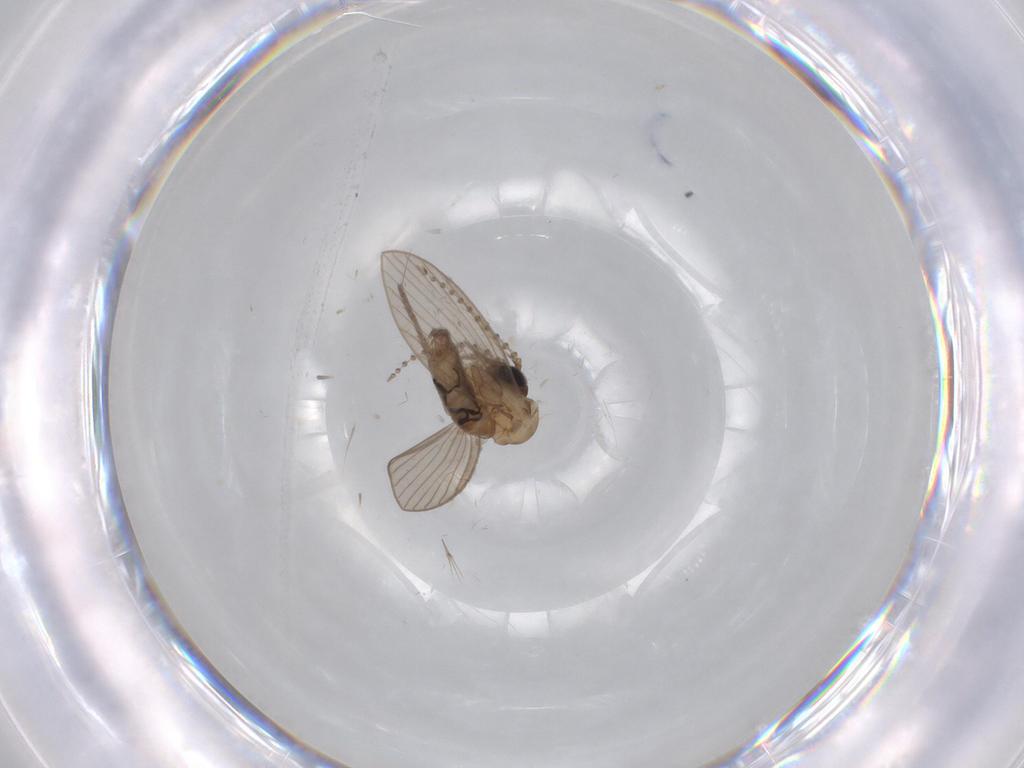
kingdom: Animalia
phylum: Arthropoda
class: Insecta
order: Diptera
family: Psychodidae
